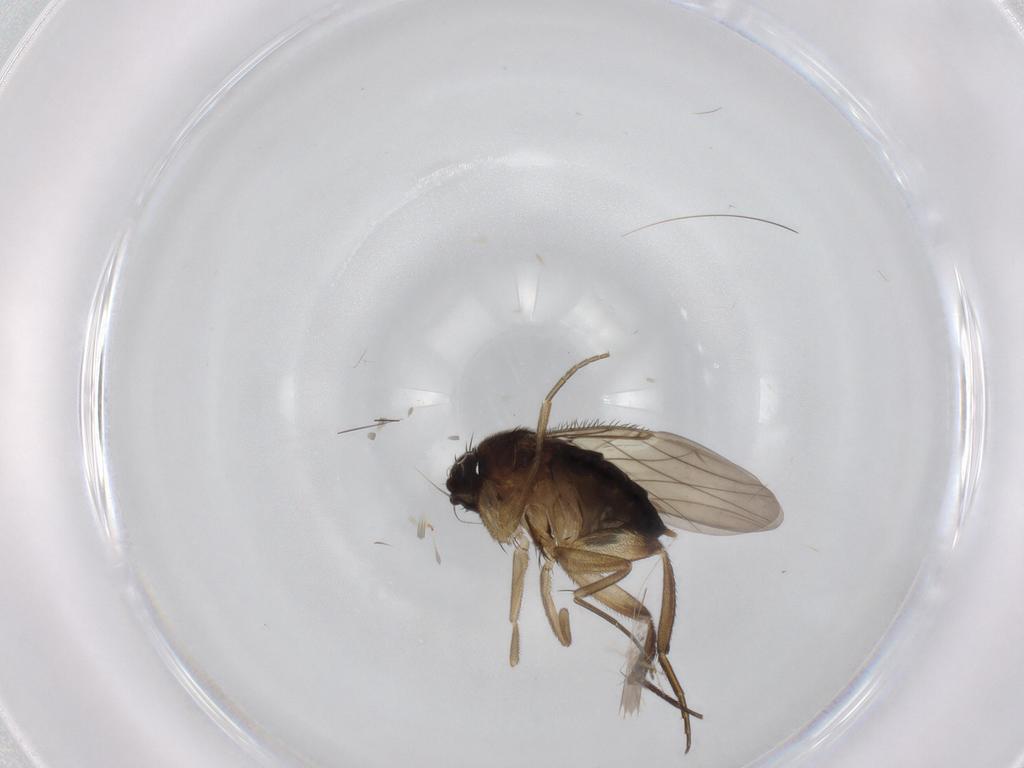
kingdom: Animalia
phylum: Arthropoda
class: Insecta
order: Diptera
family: Phoridae
